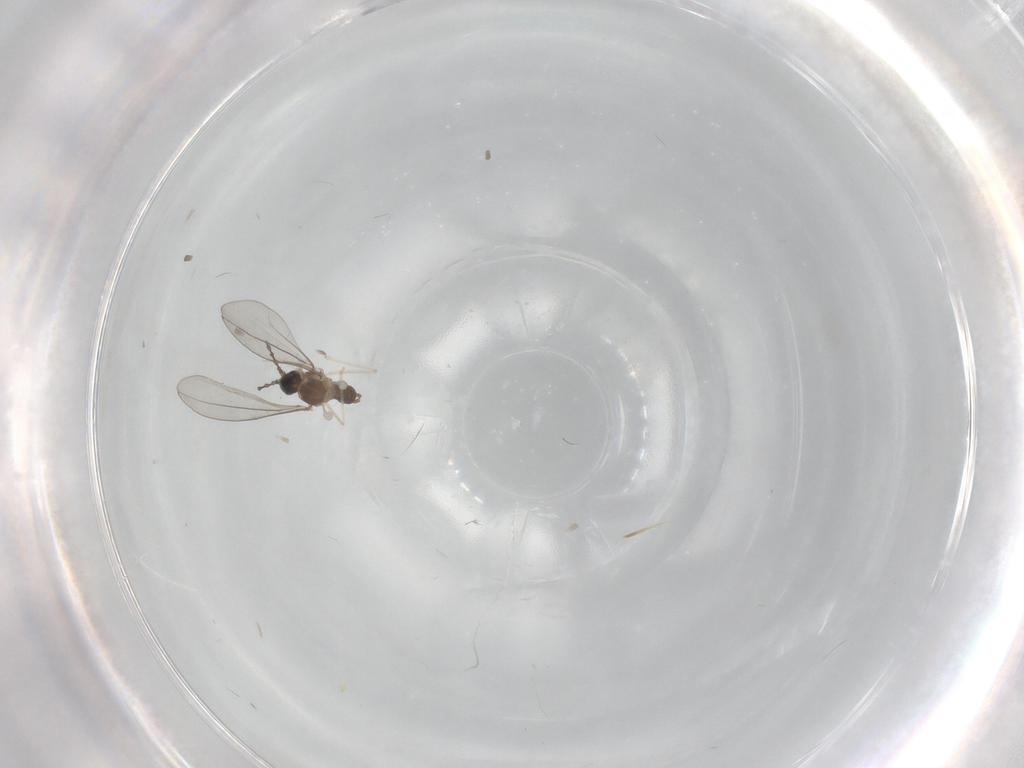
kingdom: Animalia
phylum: Arthropoda
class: Insecta
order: Diptera
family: Cecidomyiidae
